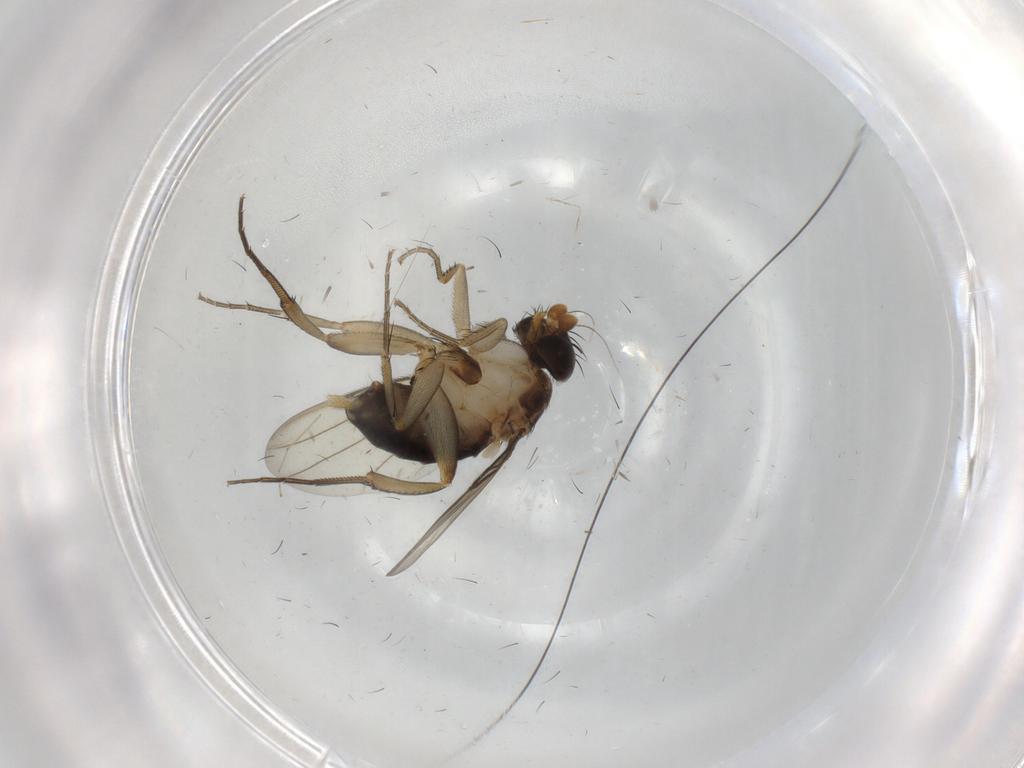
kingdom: Animalia
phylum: Arthropoda
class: Insecta
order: Diptera
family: Phoridae
